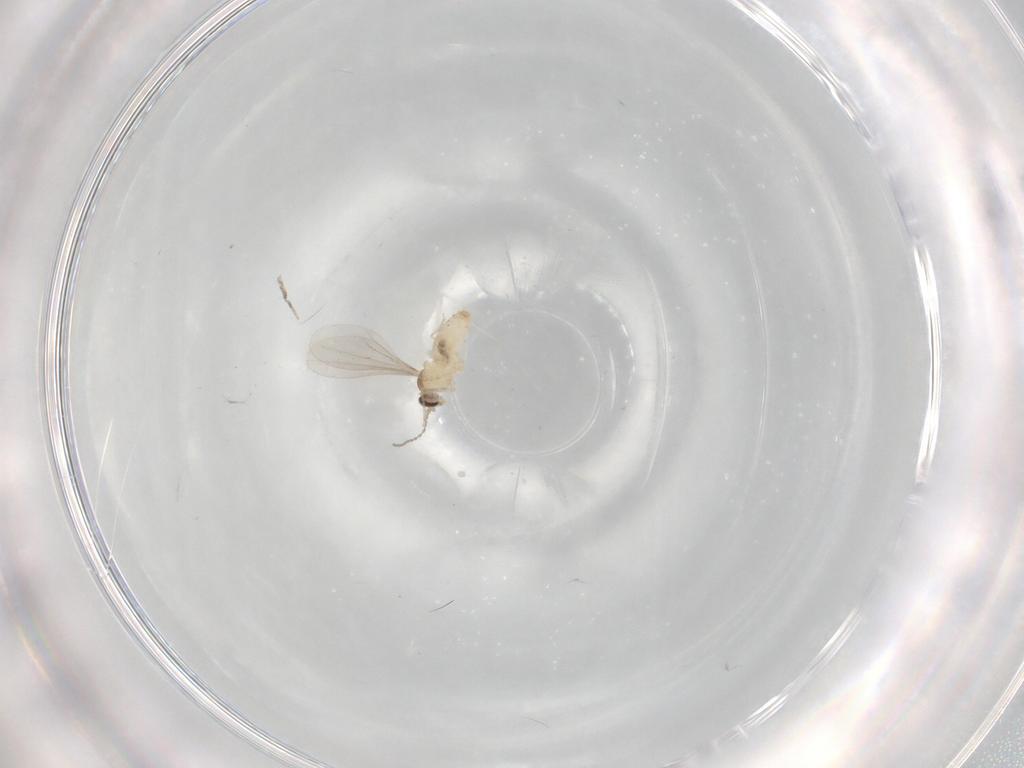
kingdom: Animalia
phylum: Arthropoda
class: Insecta
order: Diptera
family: Cecidomyiidae
